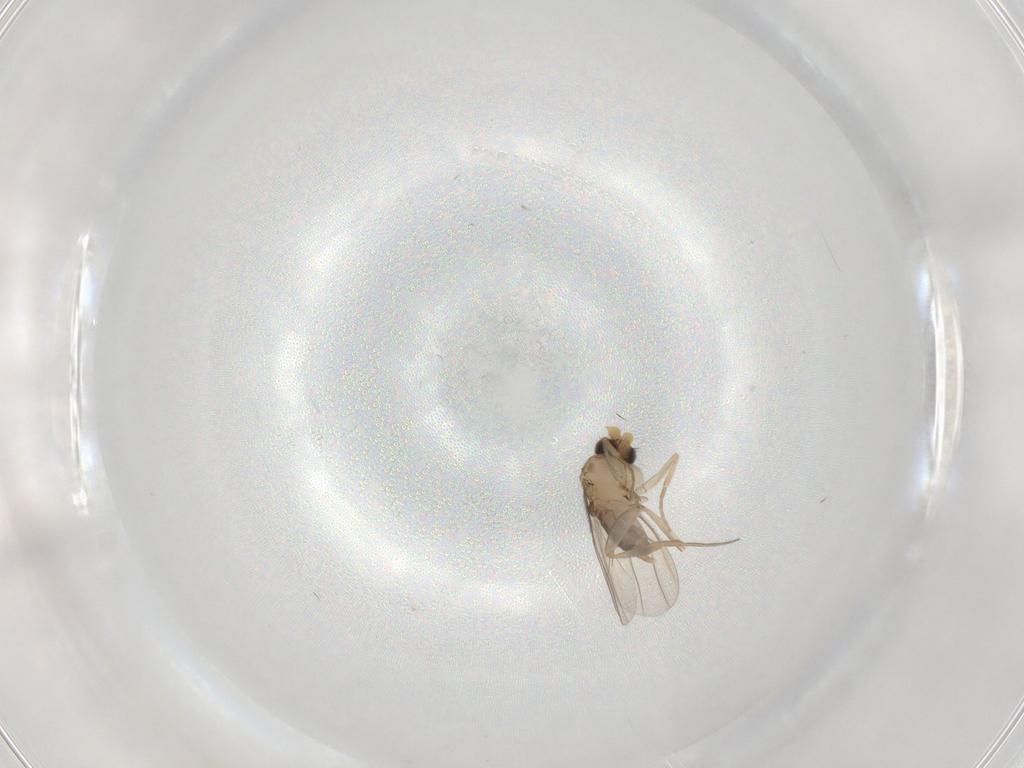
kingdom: Animalia
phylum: Arthropoda
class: Insecta
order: Diptera
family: Phoridae
